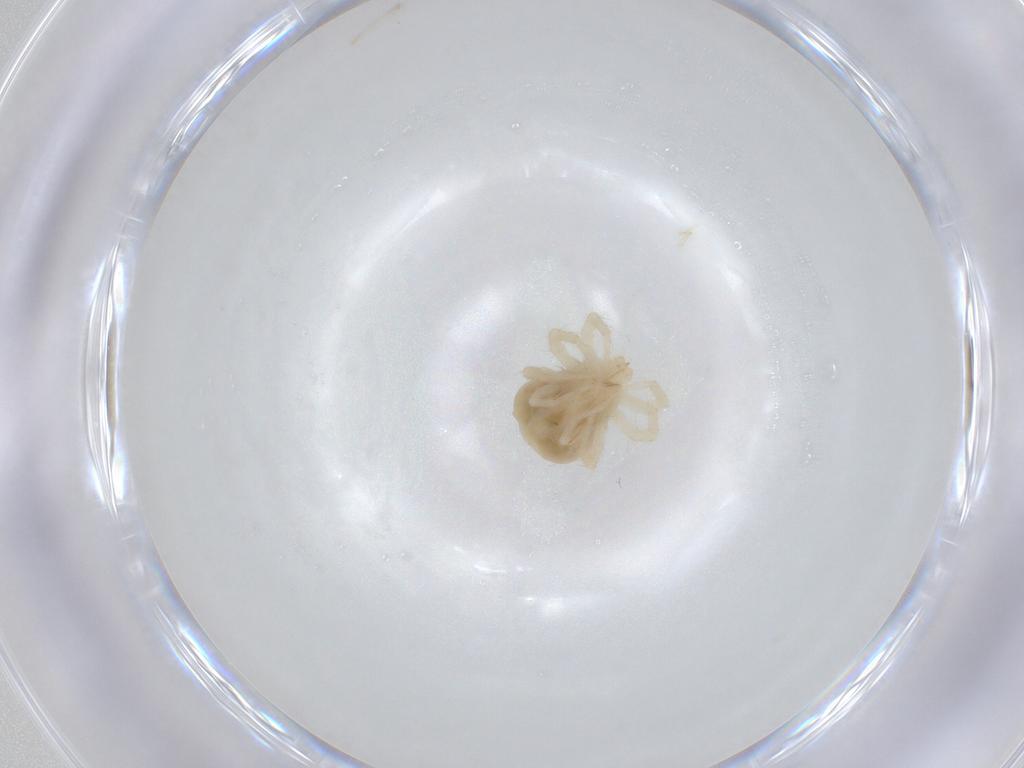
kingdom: Animalia
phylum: Arthropoda
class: Arachnida
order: Trombidiformes
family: Anystidae
